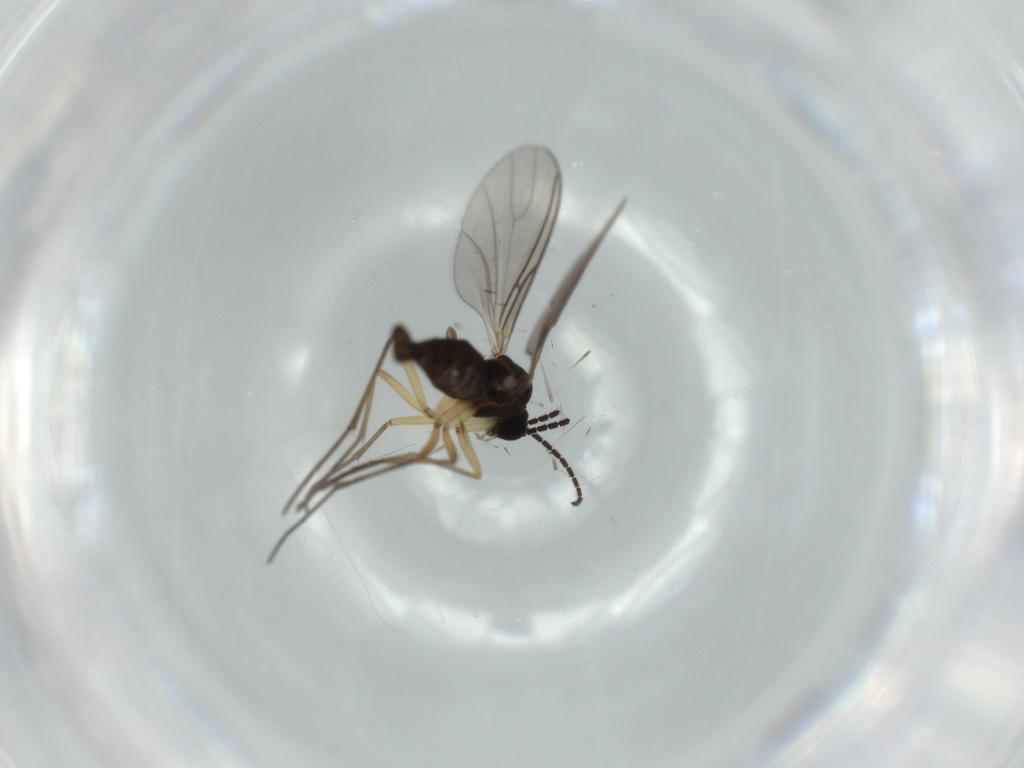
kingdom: Animalia
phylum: Arthropoda
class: Insecta
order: Diptera
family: Sciaridae
